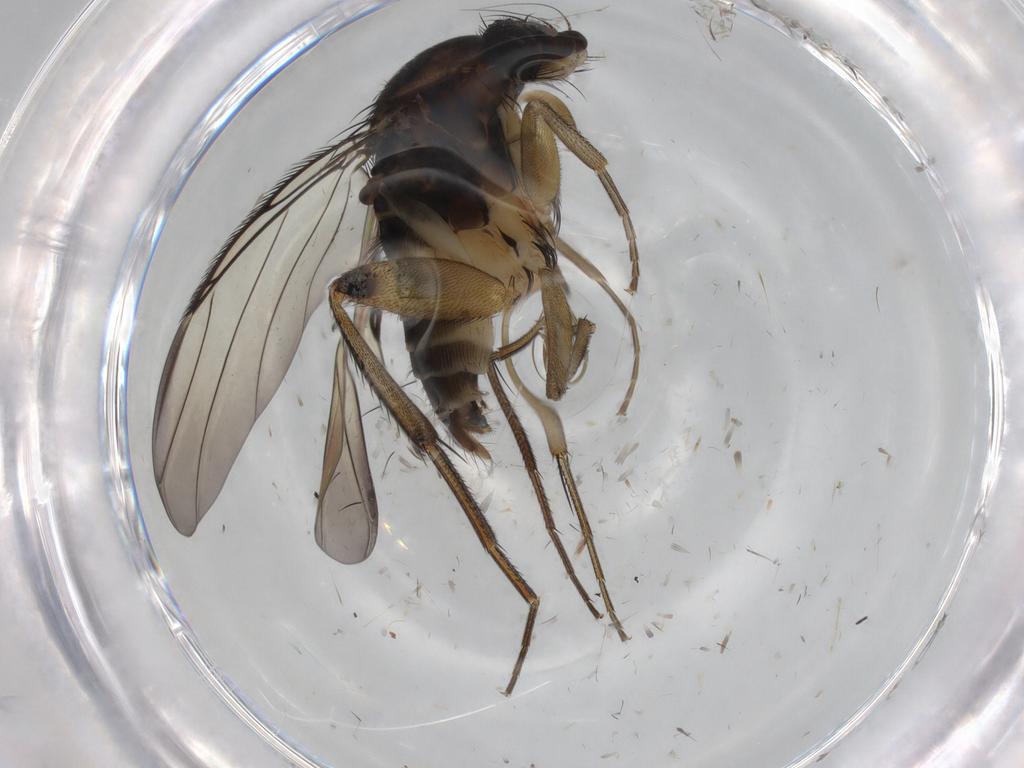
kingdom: Animalia
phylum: Arthropoda
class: Insecta
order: Diptera
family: Phoridae
